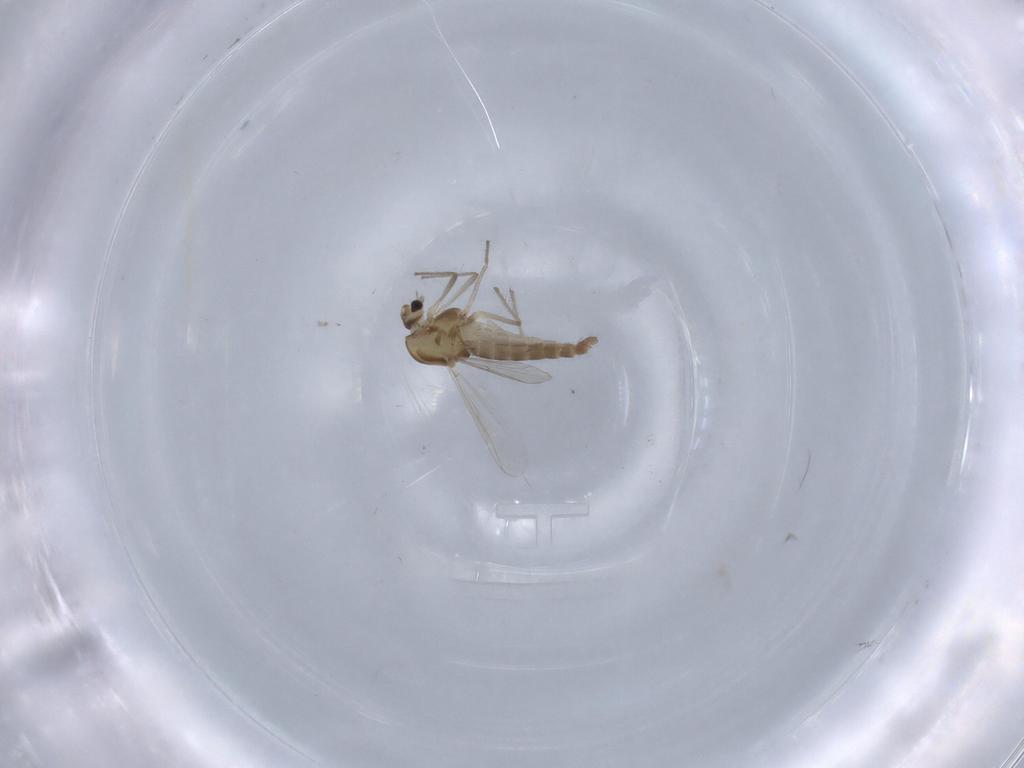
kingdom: Animalia
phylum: Arthropoda
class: Insecta
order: Diptera
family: Chironomidae
